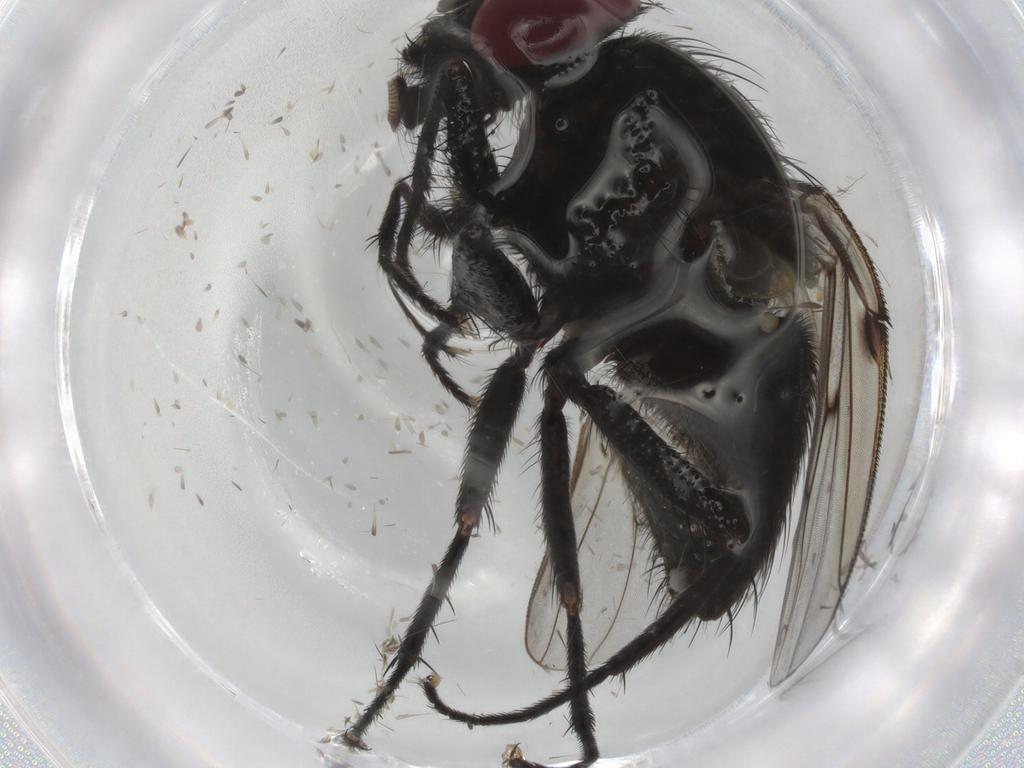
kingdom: Animalia
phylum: Arthropoda
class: Insecta
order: Diptera
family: Muscidae
